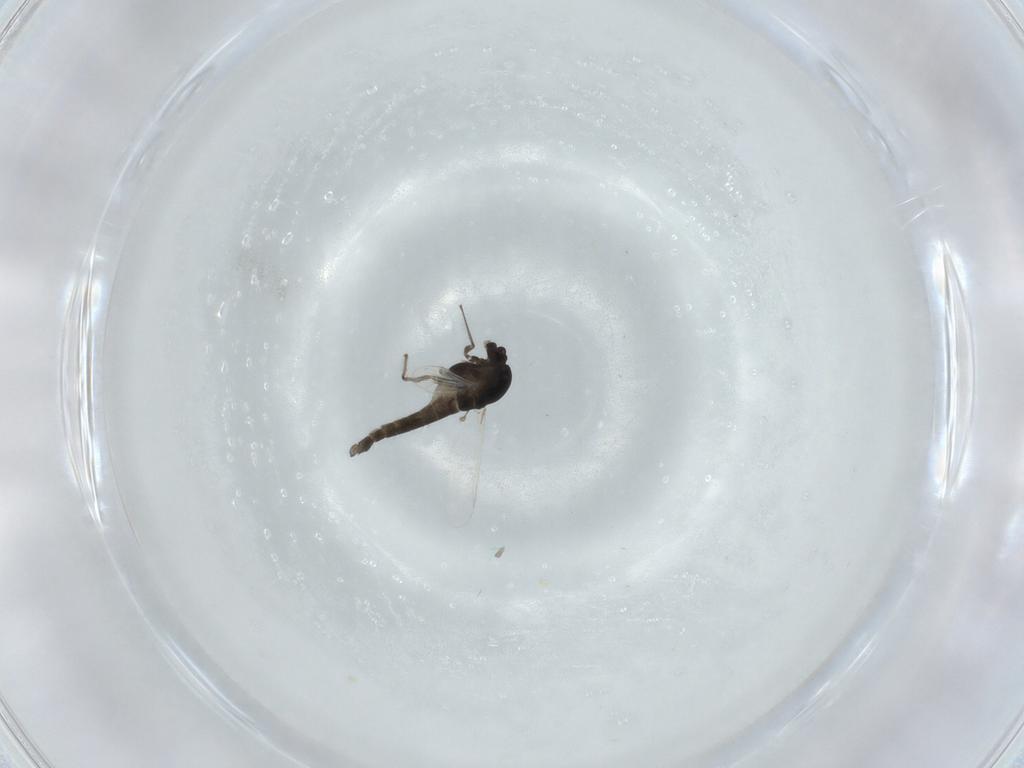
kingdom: Animalia
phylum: Arthropoda
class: Insecta
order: Diptera
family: Chironomidae
